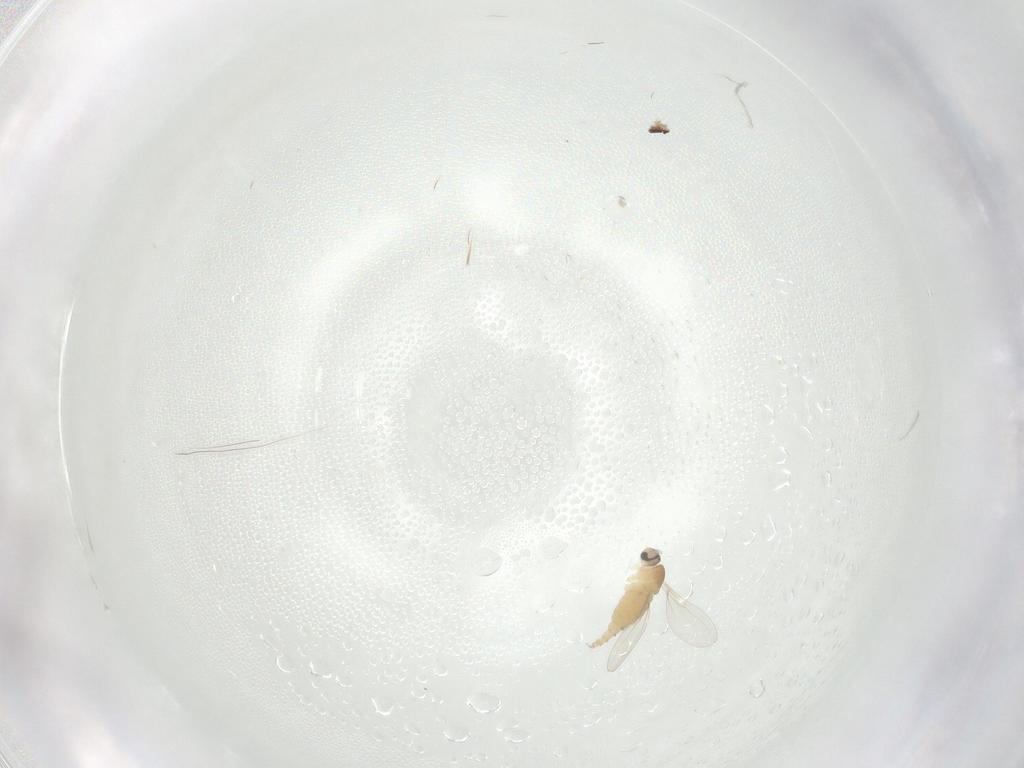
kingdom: Animalia
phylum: Arthropoda
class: Insecta
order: Diptera
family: Cecidomyiidae
